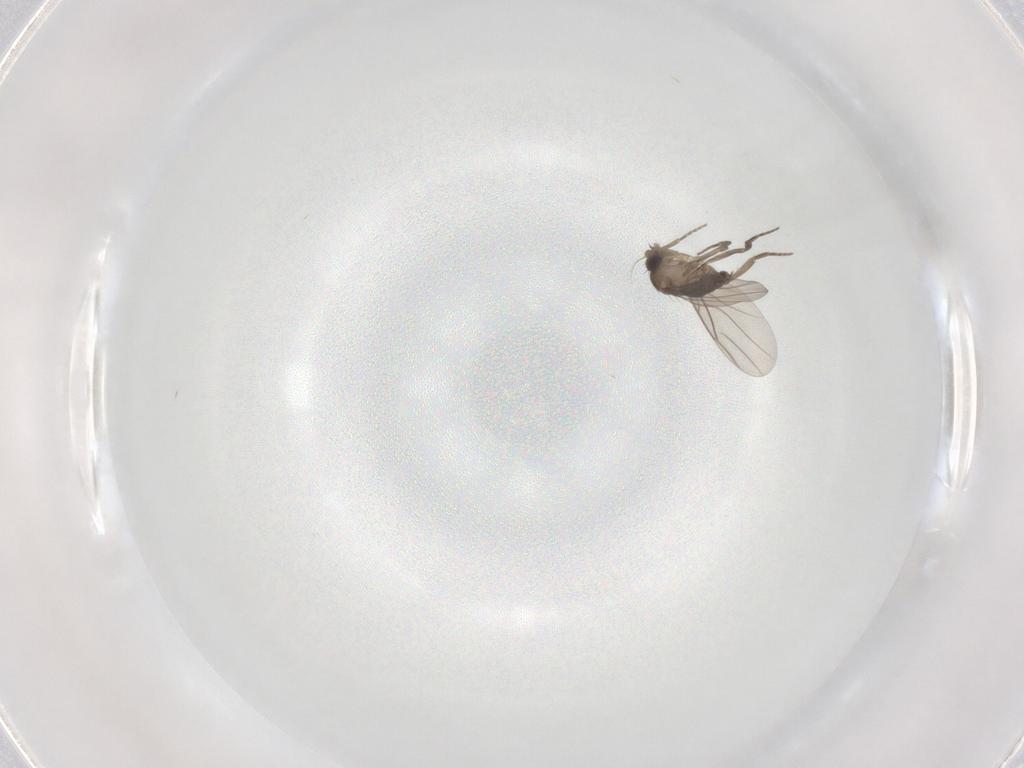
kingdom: Animalia
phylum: Arthropoda
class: Insecta
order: Diptera
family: Phoridae
